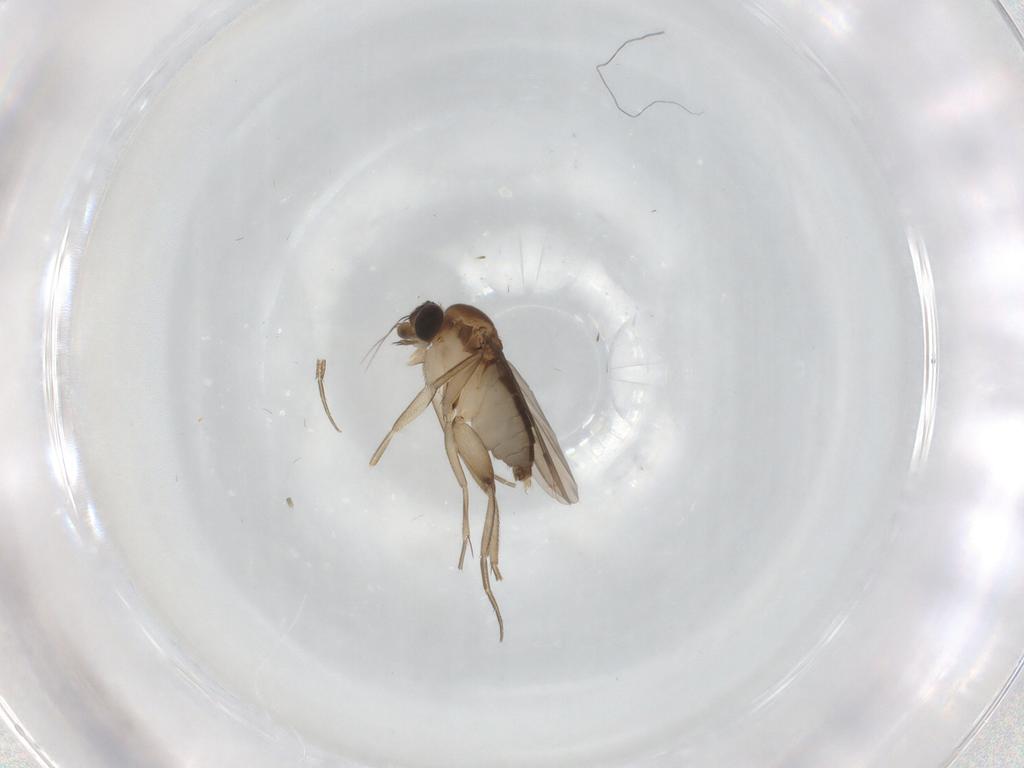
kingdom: Animalia
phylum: Arthropoda
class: Insecta
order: Diptera
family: Phoridae
